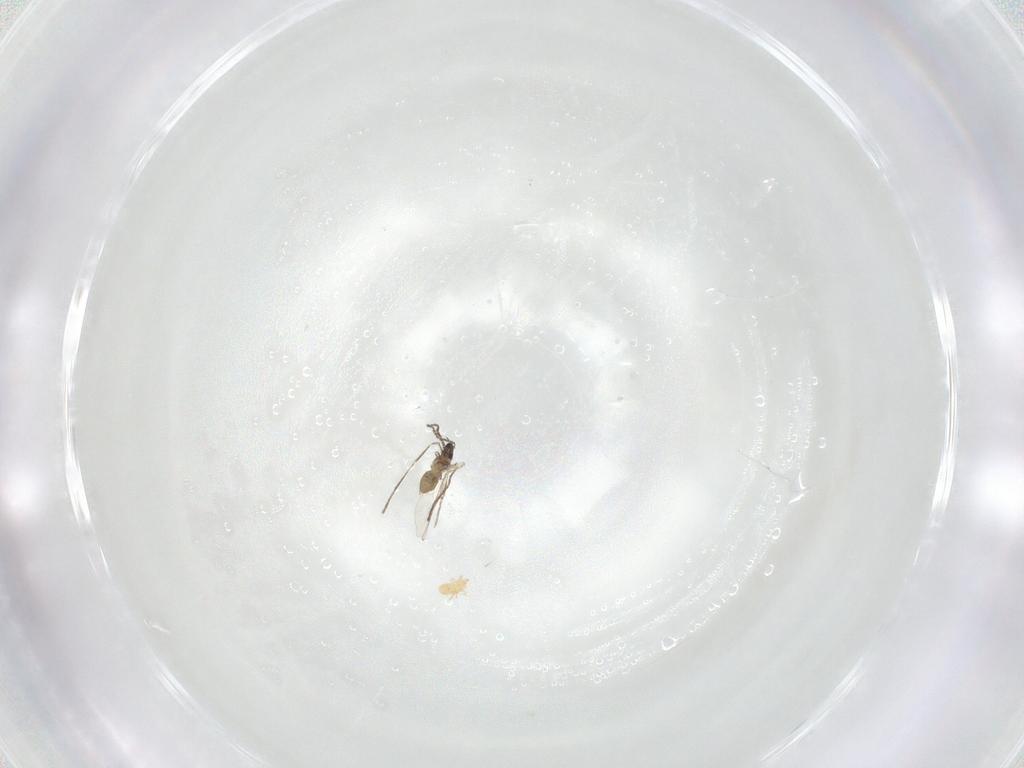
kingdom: Animalia
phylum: Arthropoda
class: Insecta
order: Diptera
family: Cecidomyiidae
